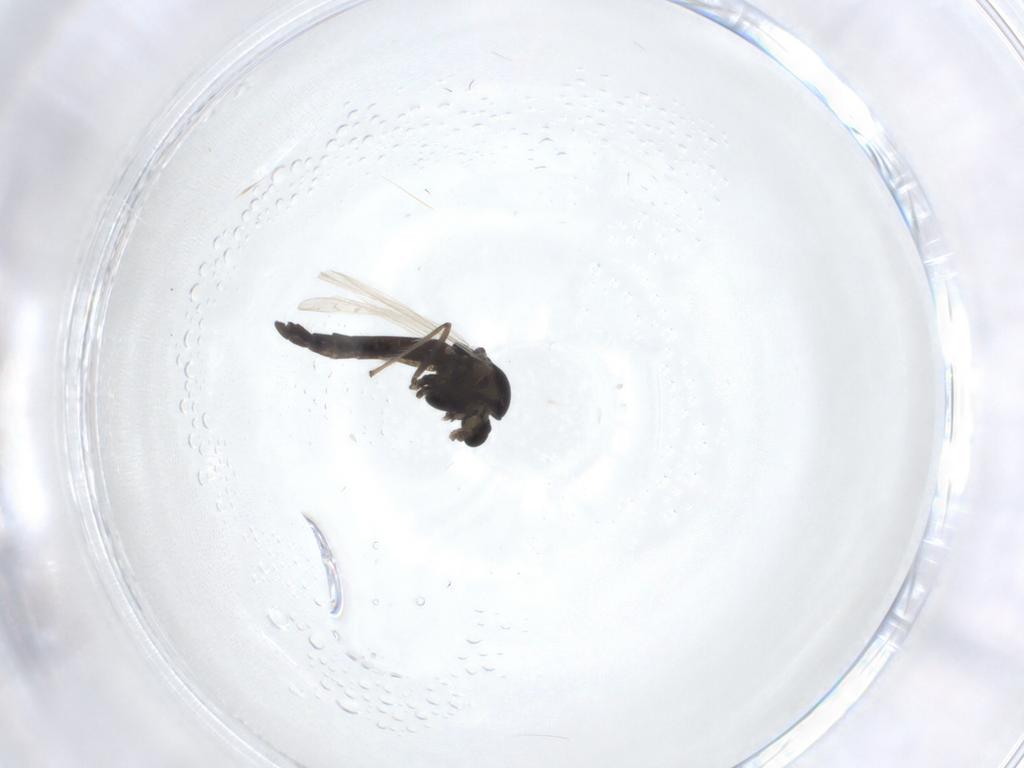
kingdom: Animalia
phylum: Arthropoda
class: Insecta
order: Diptera
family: Chironomidae
